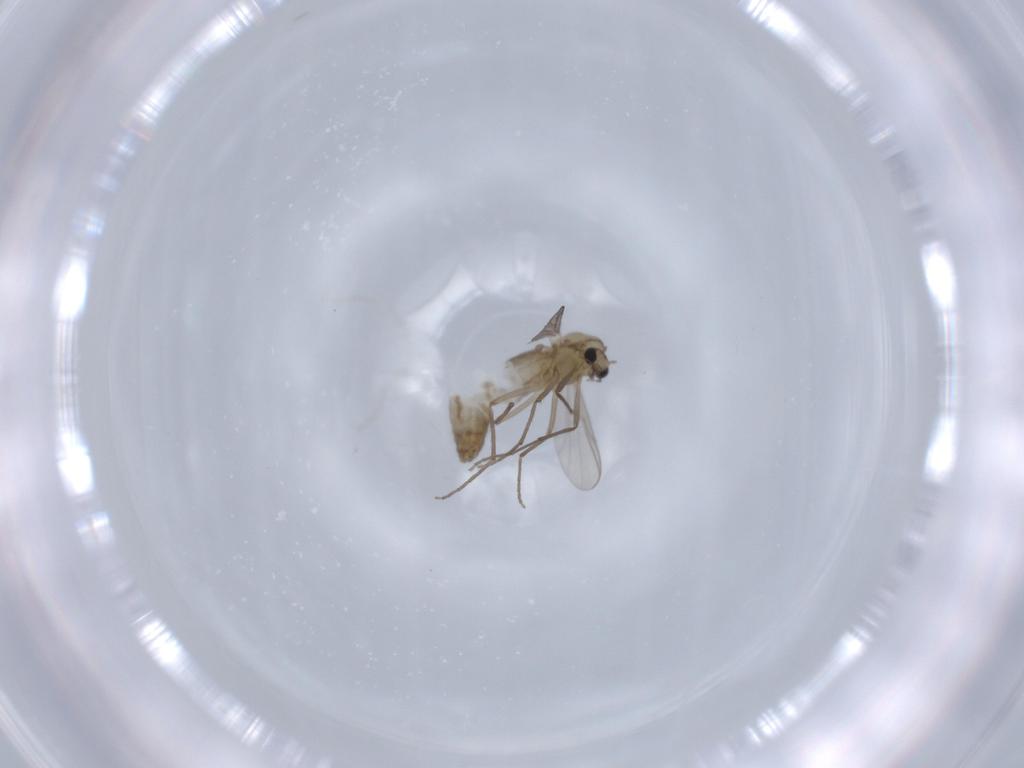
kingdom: Animalia
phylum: Arthropoda
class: Insecta
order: Diptera
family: Chironomidae
